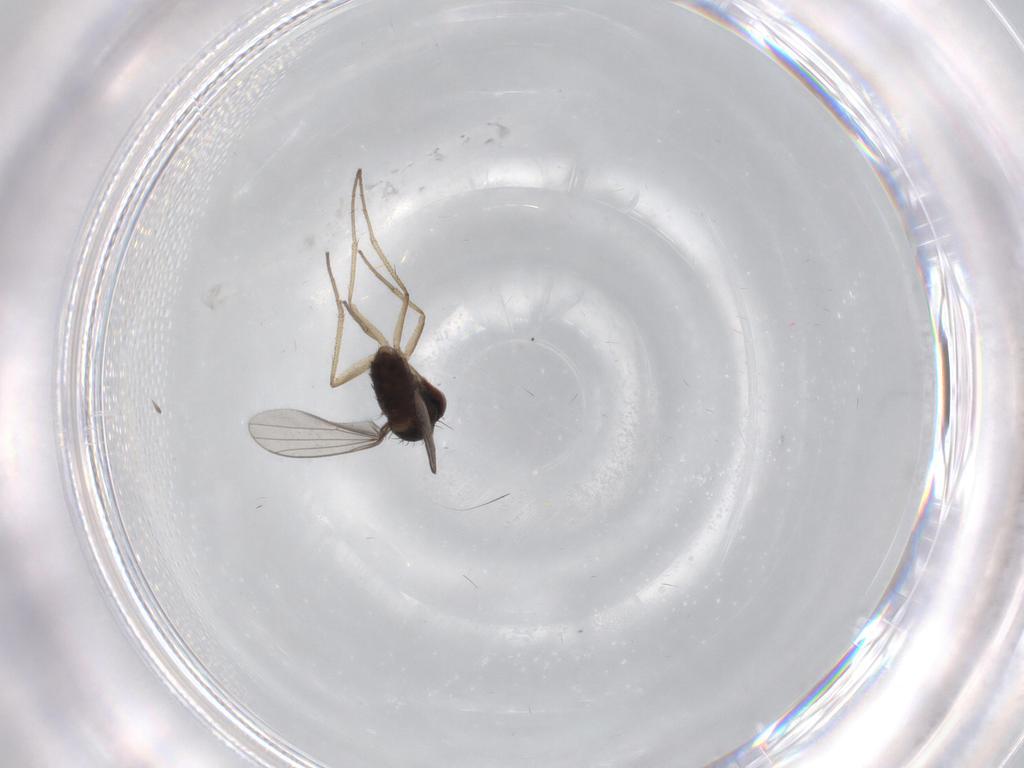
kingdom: Animalia
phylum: Arthropoda
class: Insecta
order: Diptera
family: Dolichopodidae
